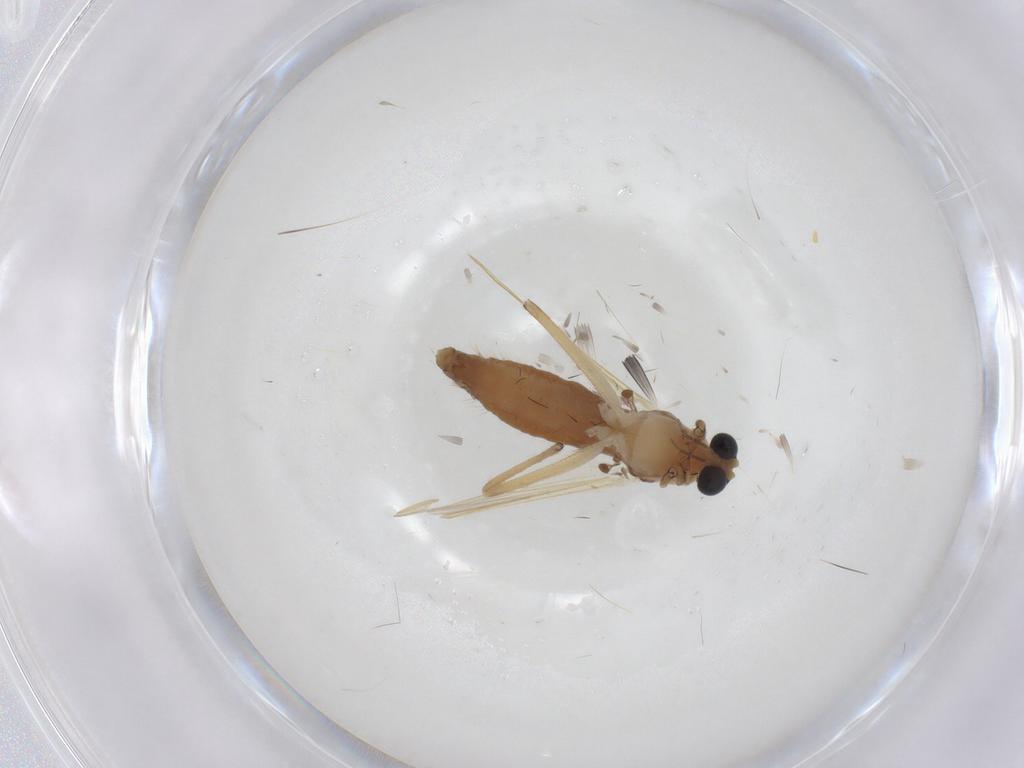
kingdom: Animalia
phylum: Arthropoda
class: Insecta
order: Diptera
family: Chironomidae
